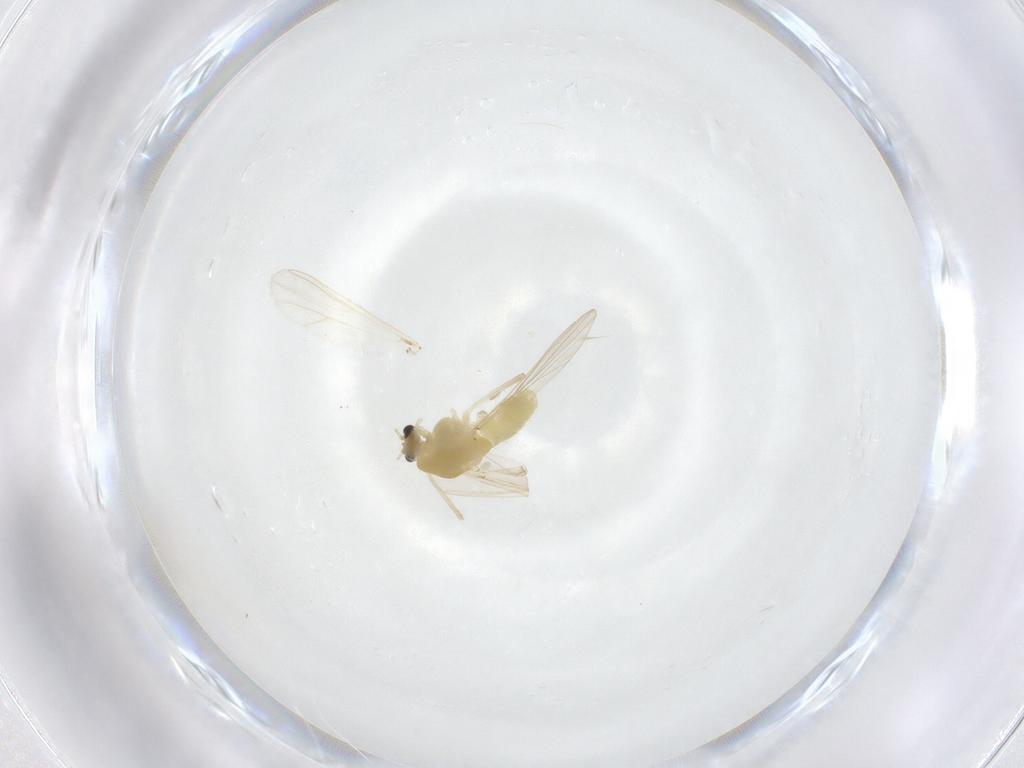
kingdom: Animalia
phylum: Arthropoda
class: Insecta
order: Diptera
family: Chironomidae
